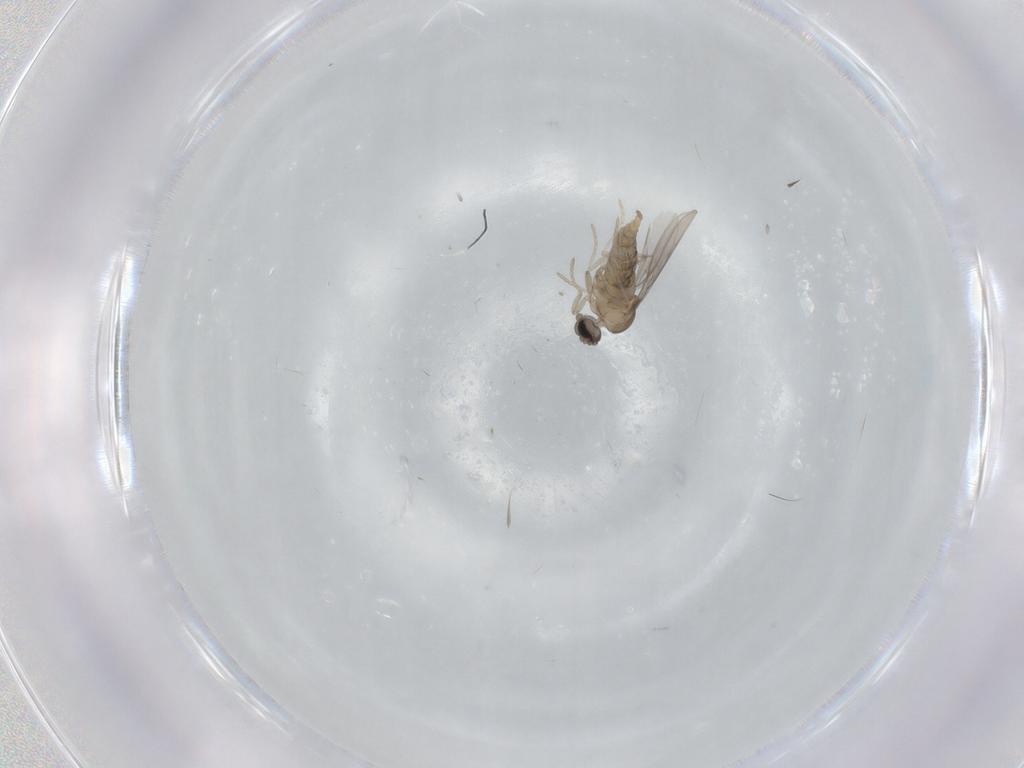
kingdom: Animalia
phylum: Arthropoda
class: Insecta
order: Diptera
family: Cecidomyiidae
